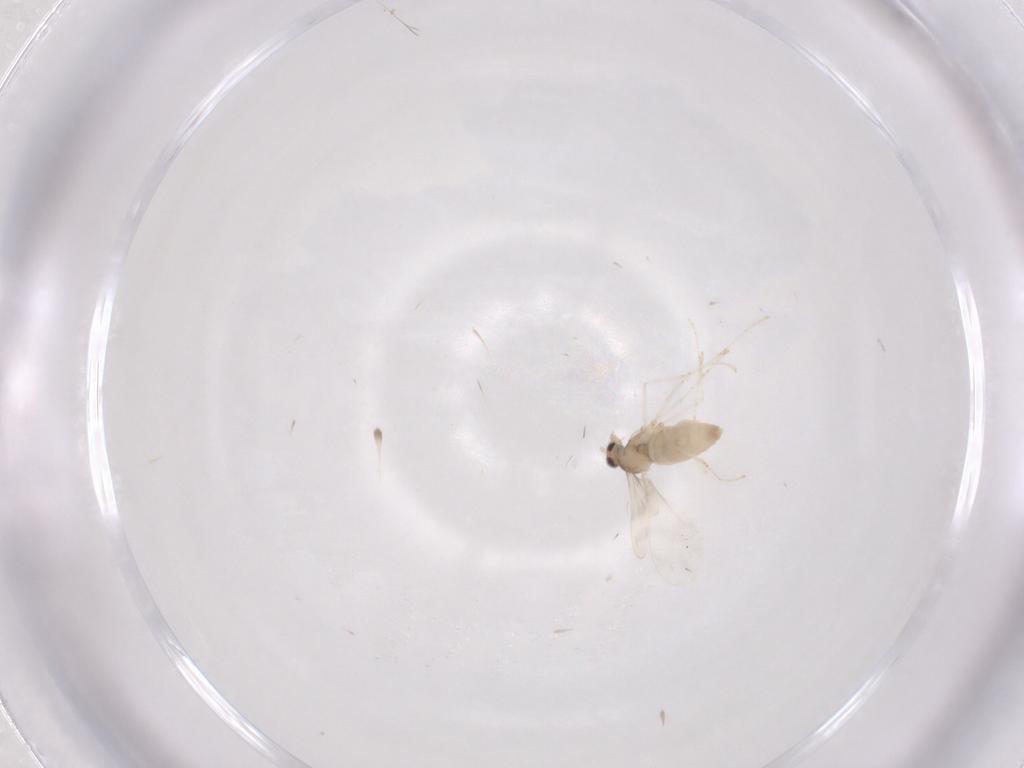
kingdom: Animalia
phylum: Arthropoda
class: Insecta
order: Diptera
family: Cecidomyiidae
